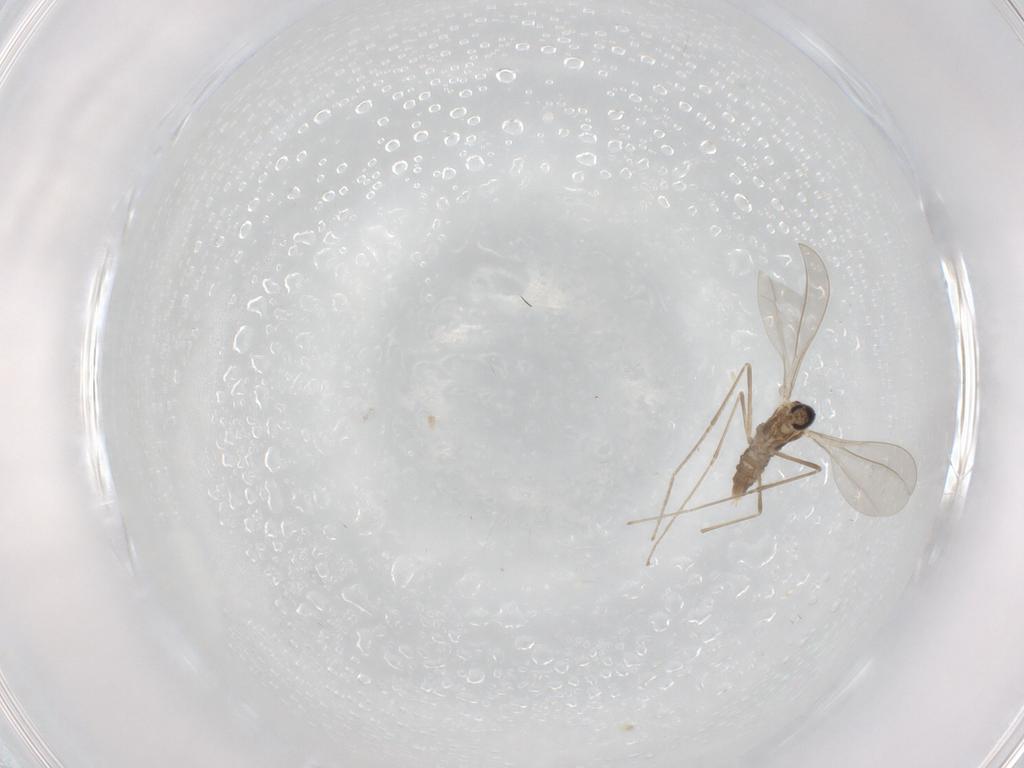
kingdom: Animalia
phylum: Arthropoda
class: Insecta
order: Diptera
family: Cecidomyiidae
